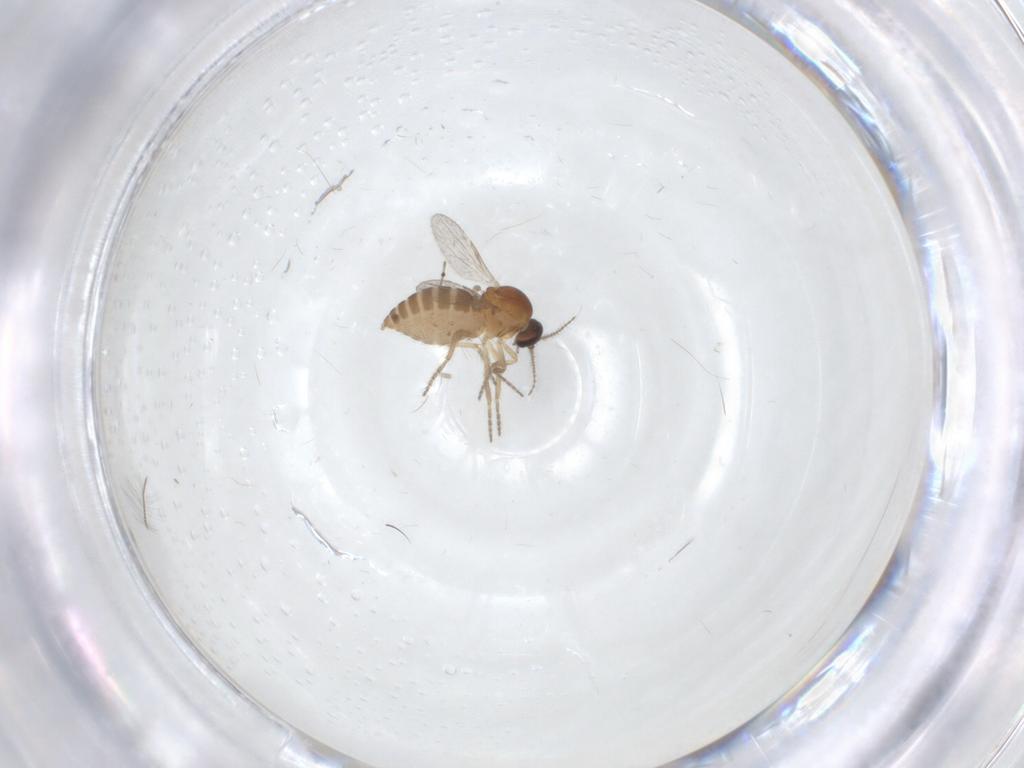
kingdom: Animalia
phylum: Arthropoda
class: Insecta
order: Diptera
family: Ceratopogonidae
